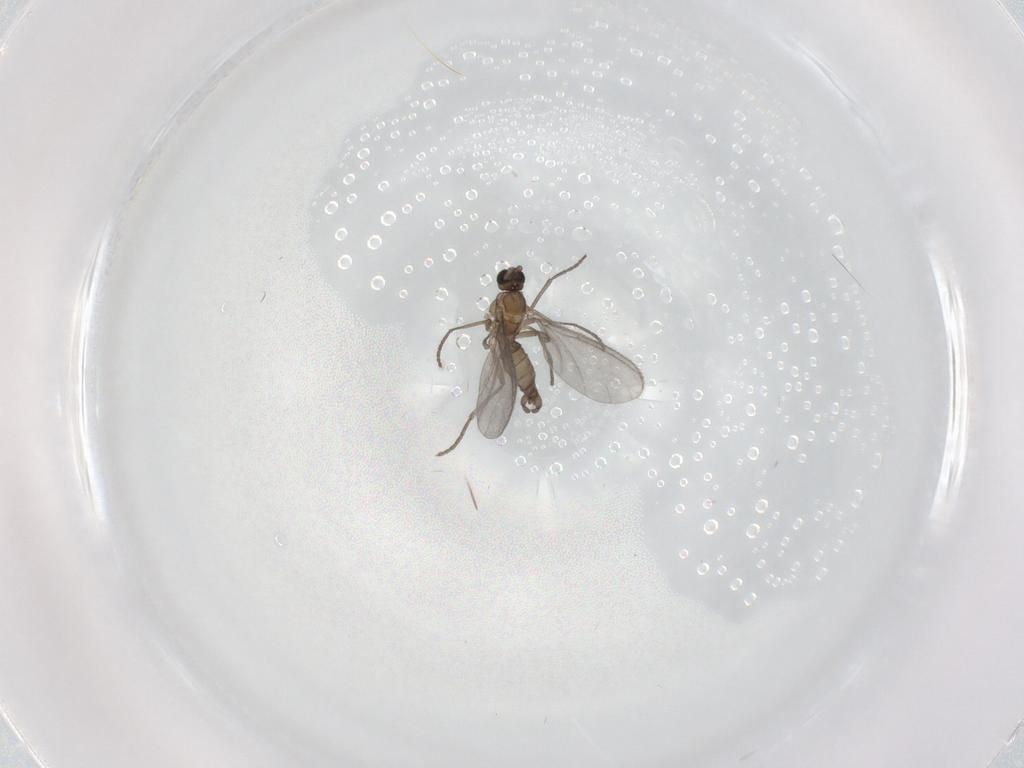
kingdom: Animalia
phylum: Arthropoda
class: Insecta
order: Diptera
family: Sciaridae
